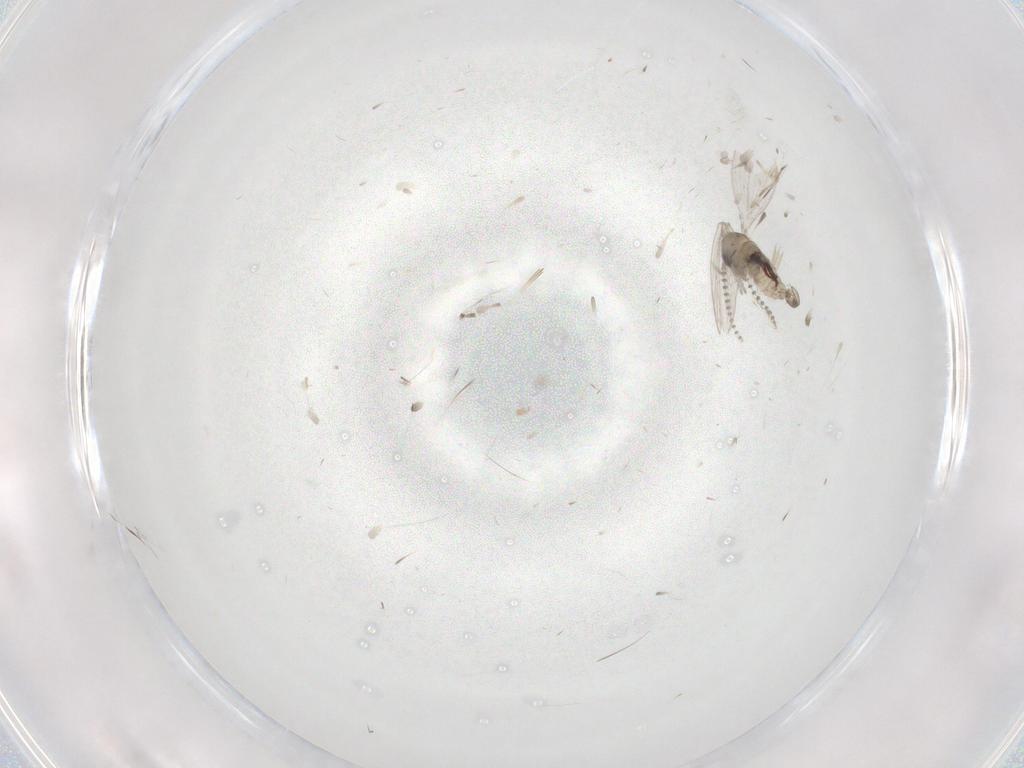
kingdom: Animalia
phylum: Arthropoda
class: Insecta
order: Diptera
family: Psychodidae
